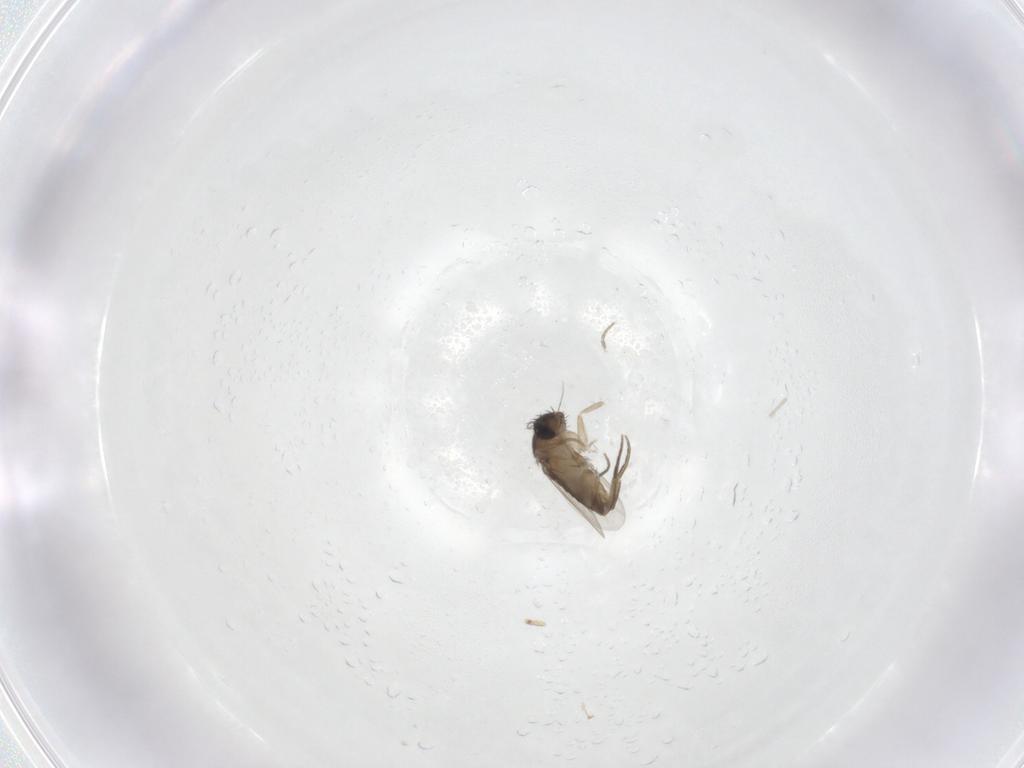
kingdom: Animalia
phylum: Arthropoda
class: Insecta
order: Diptera
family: Phoridae
